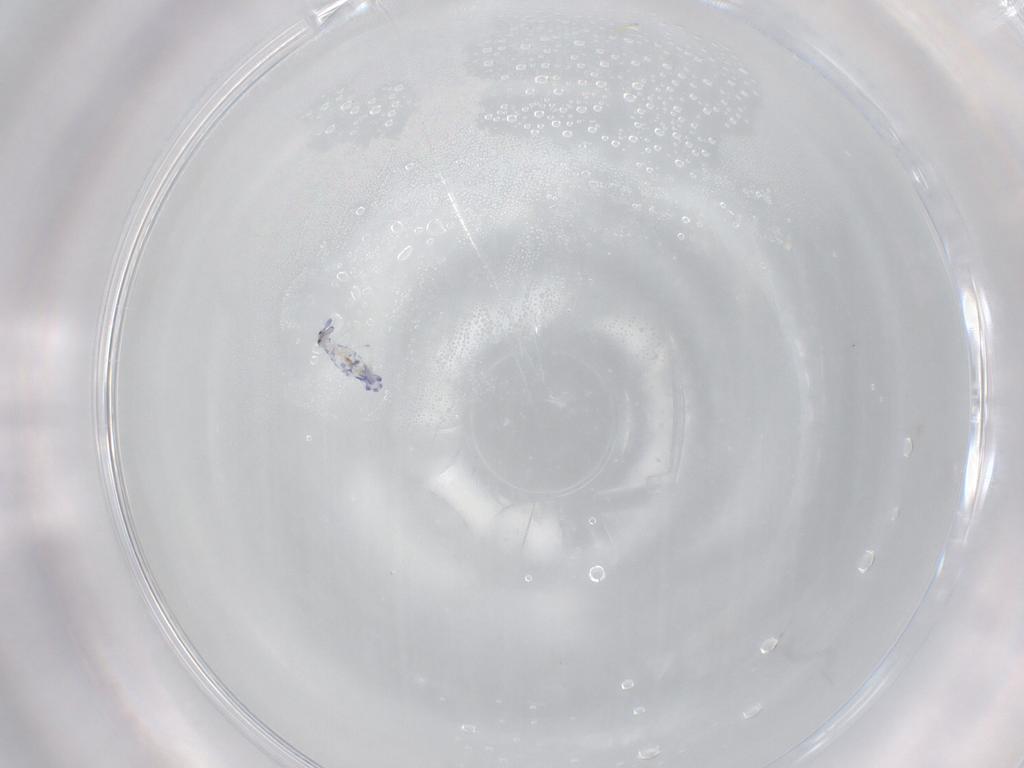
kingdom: Animalia
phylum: Arthropoda
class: Collembola
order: Entomobryomorpha
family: Entomobryidae
